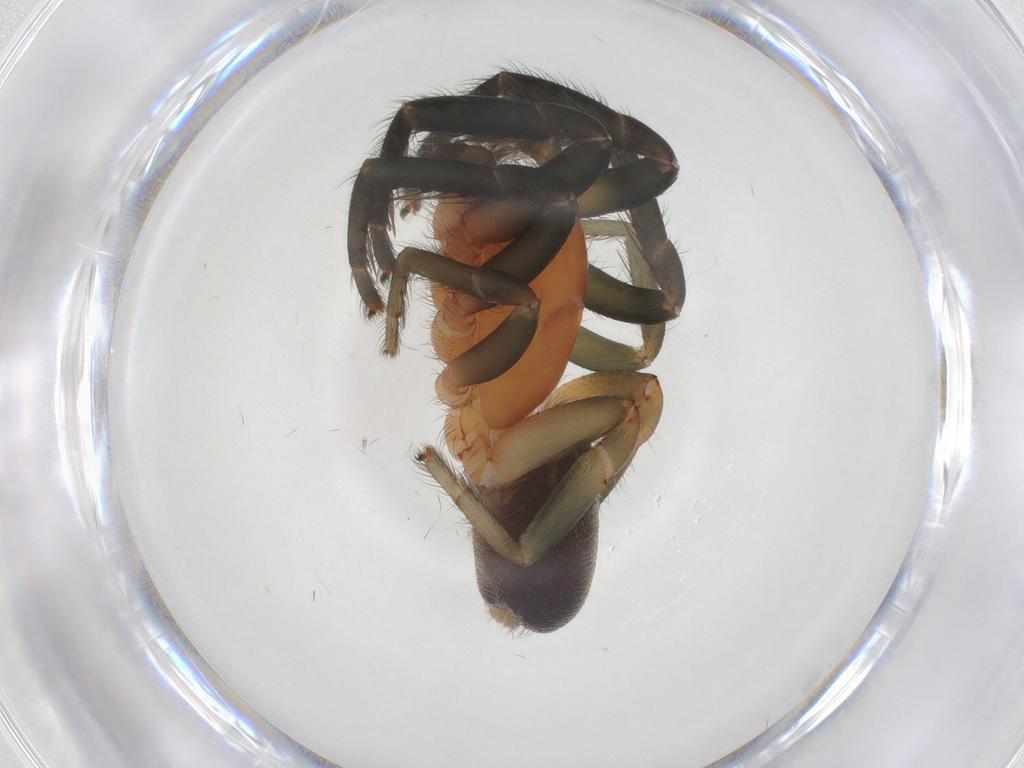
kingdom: Animalia
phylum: Arthropoda
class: Arachnida
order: Araneae
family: Segestriidae
